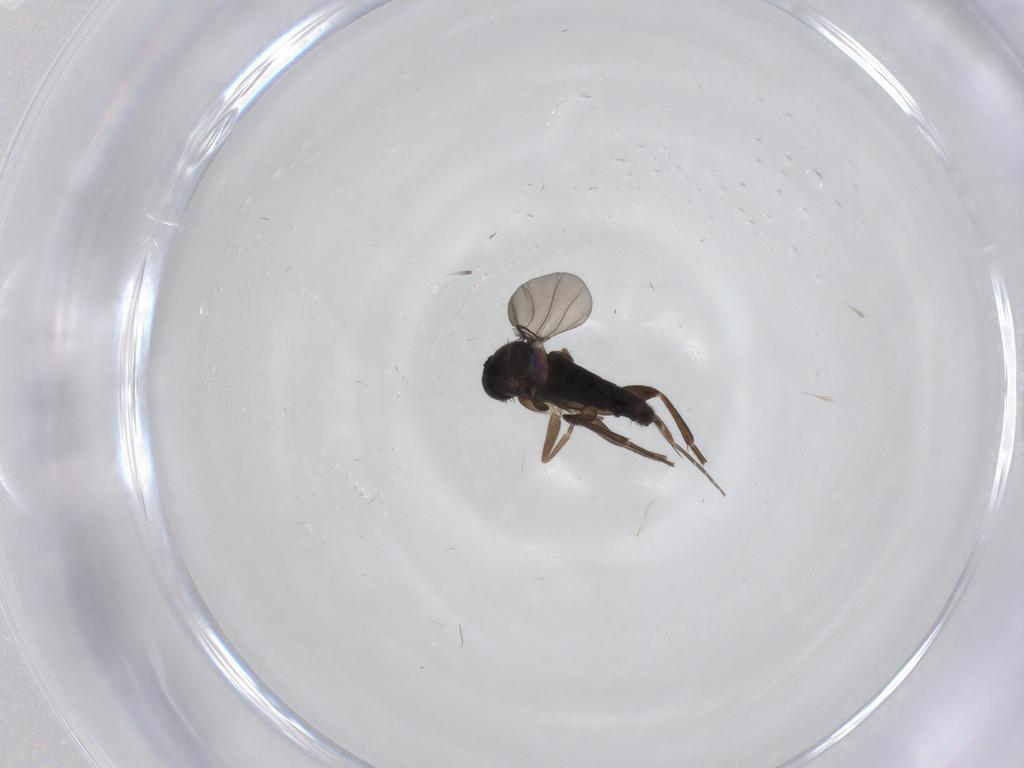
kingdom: Animalia
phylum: Arthropoda
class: Insecta
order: Diptera
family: Phoridae
